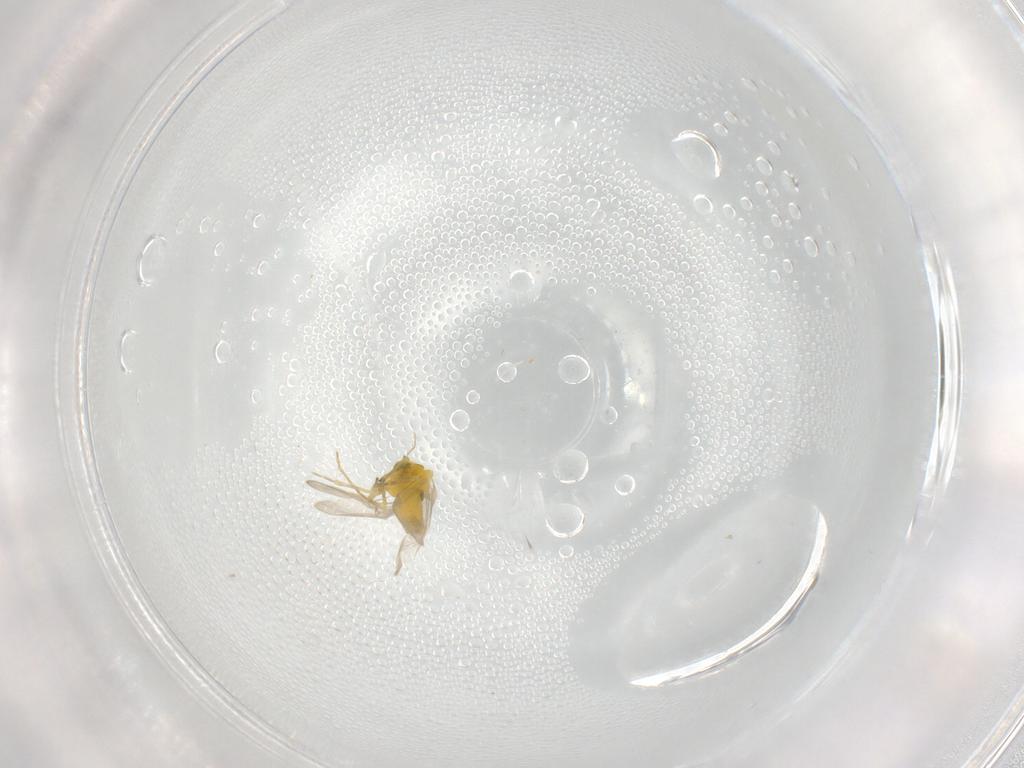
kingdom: Animalia
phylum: Arthropoda
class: Insecta
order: Hemiptera
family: Aleyrodidae
